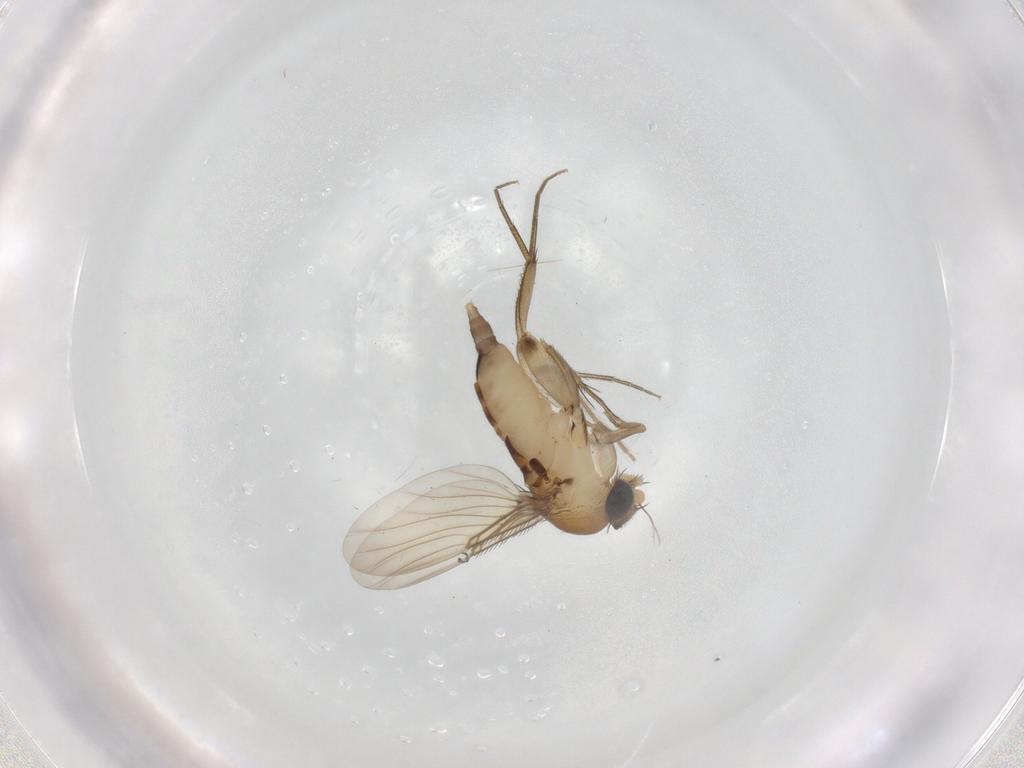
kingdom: Animalia
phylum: Arthropoda
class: Insecta
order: Diptera
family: Phoridae
